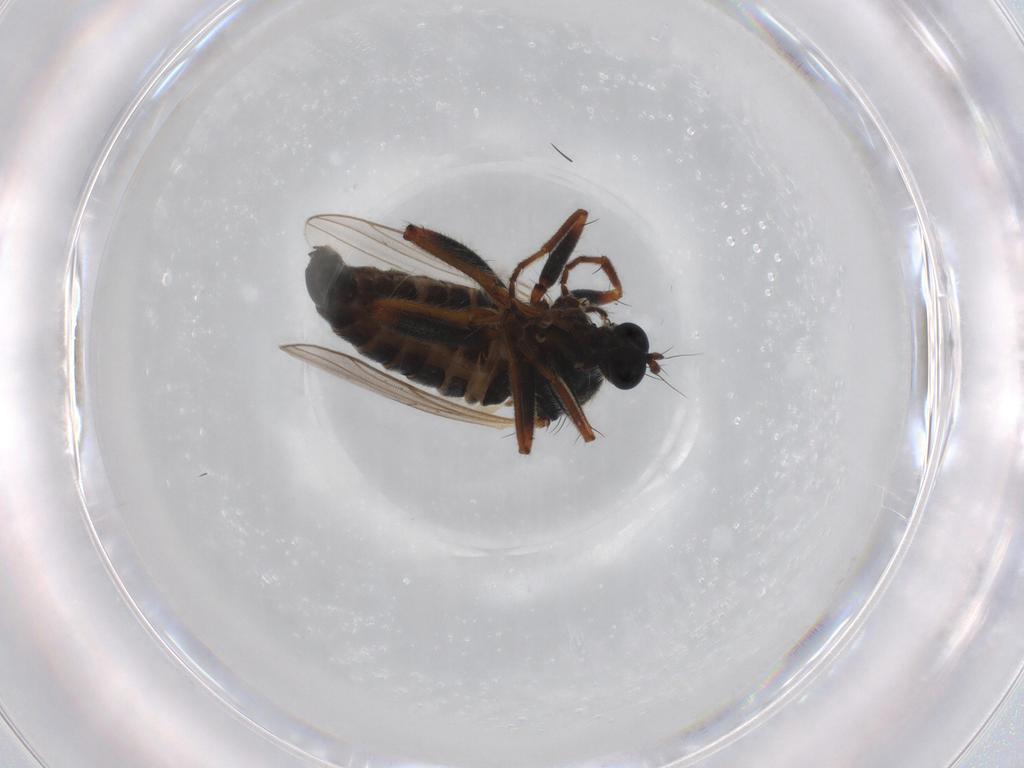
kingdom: Animalia
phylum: Arthropoda
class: Insecta
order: Diptera
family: Hybotidae
